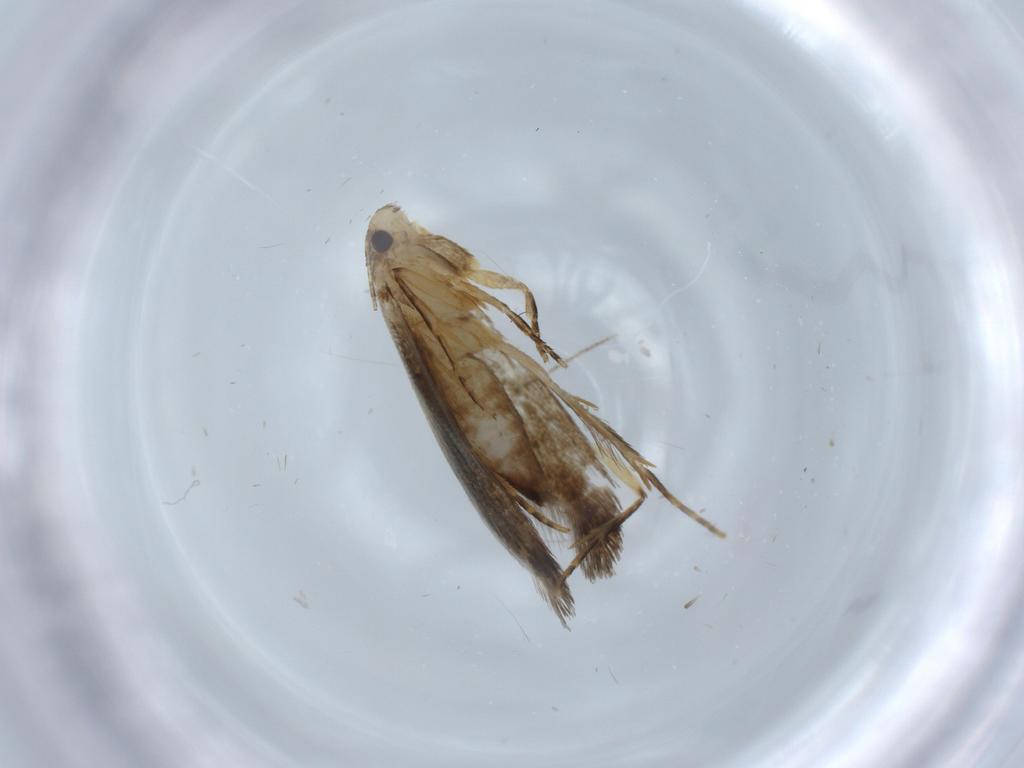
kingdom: Animalia
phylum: Arthropoda
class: Insecta
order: Lepidoptera
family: Tineidae
